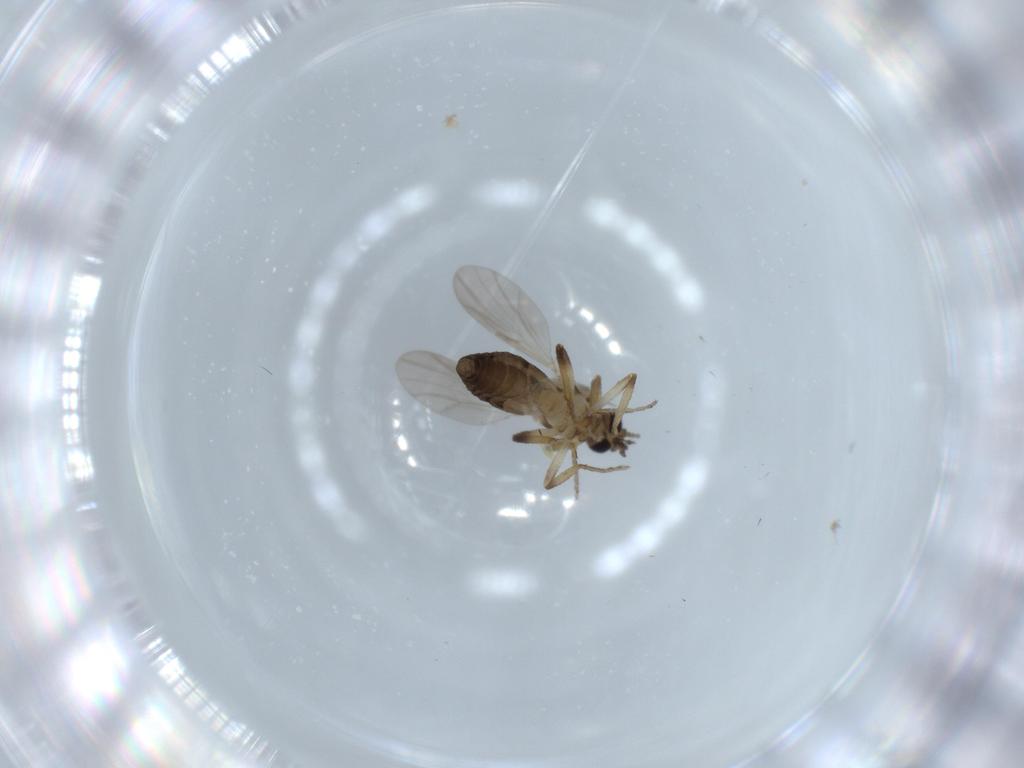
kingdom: Animalia
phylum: Arthropoda
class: Insecta
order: Diptera
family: Ceratopogonidae
